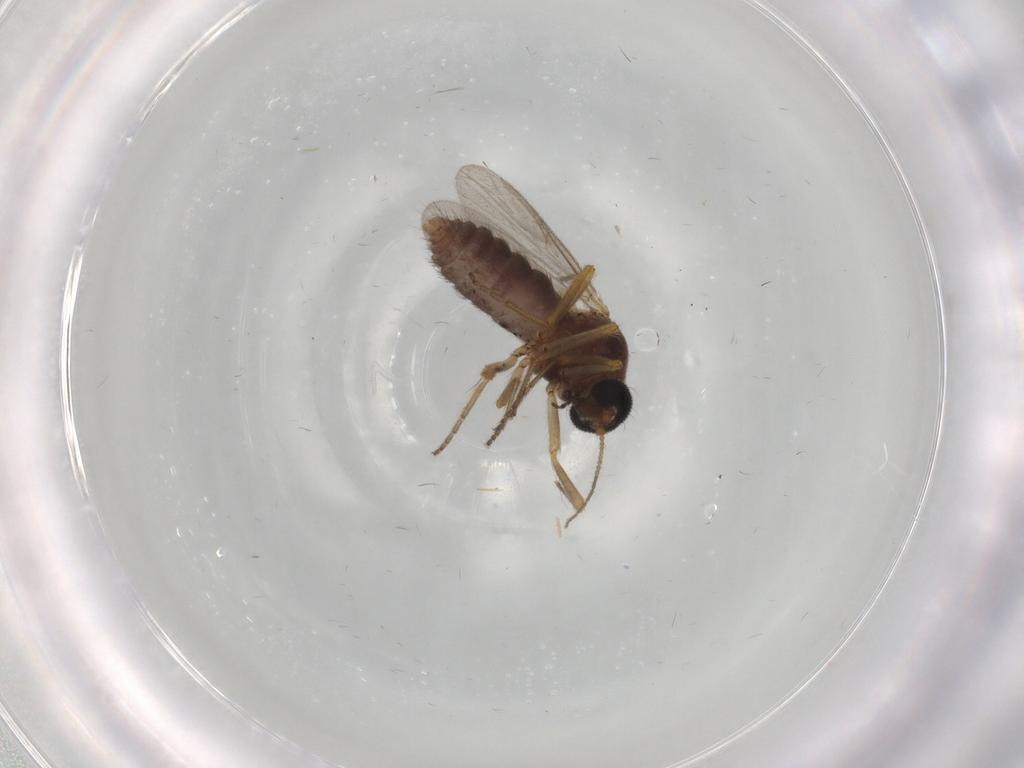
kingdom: Animalia
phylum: Arthropoda
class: Insecta
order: Diptera
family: Ceratopogonidae
